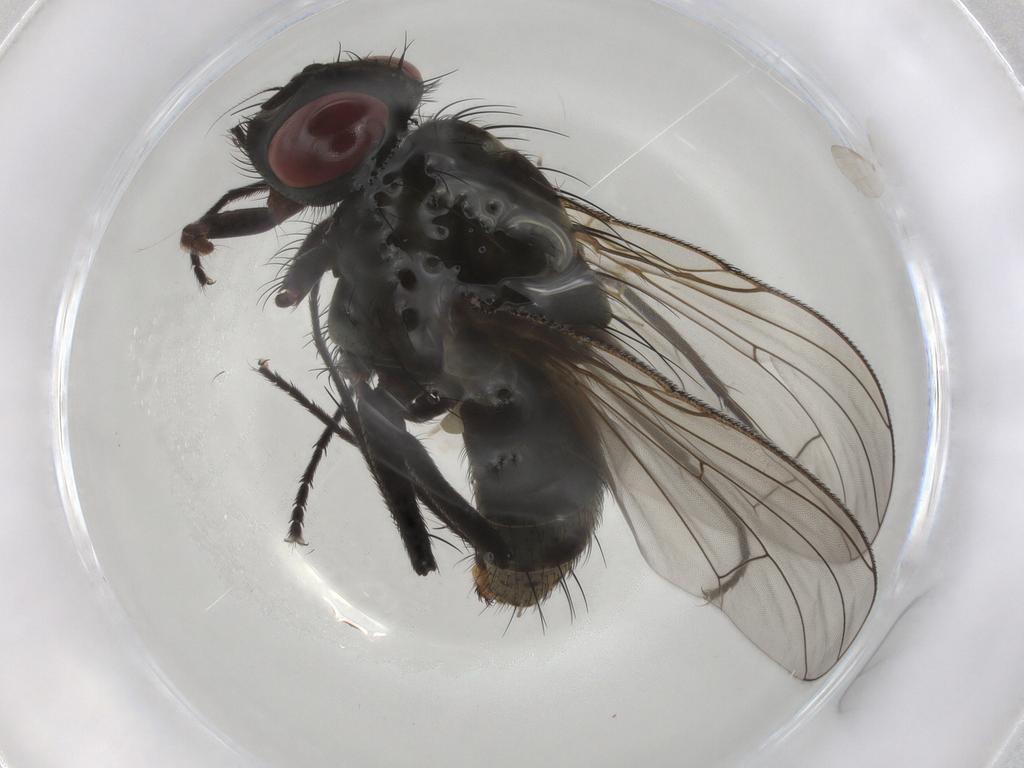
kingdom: Animalia
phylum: Arthropoda
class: Insecta
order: Diptera
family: Muscidae
